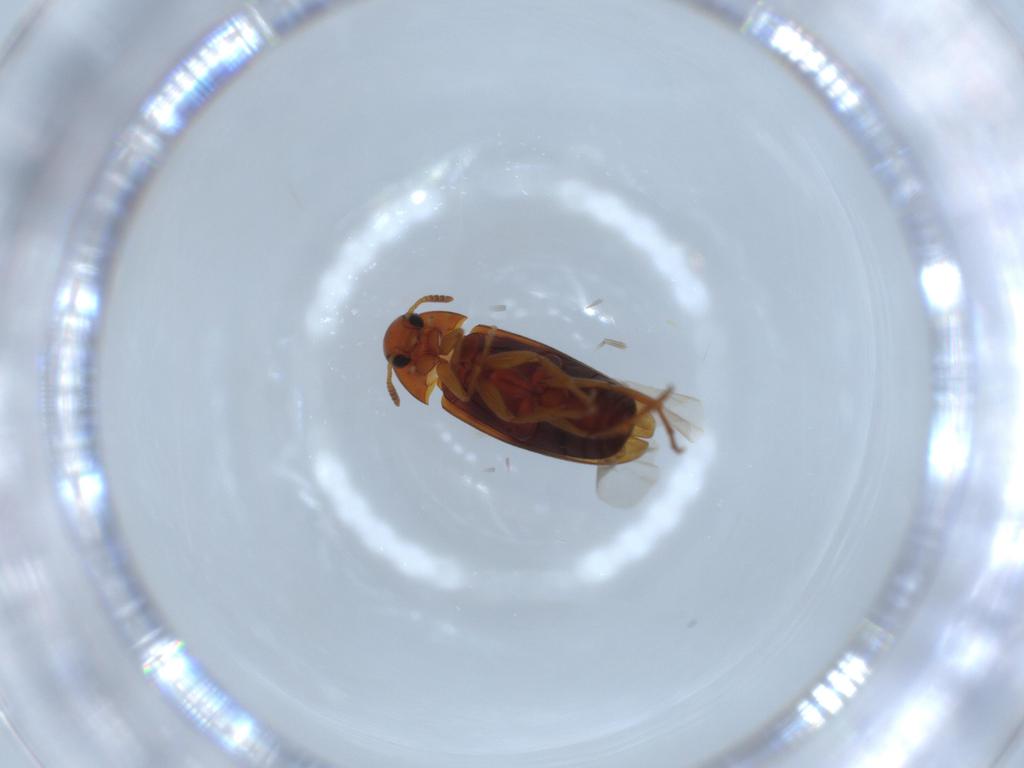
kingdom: Animalia
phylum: Arthropoda
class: Insecta
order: Coleoptera
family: Scraptiidae
